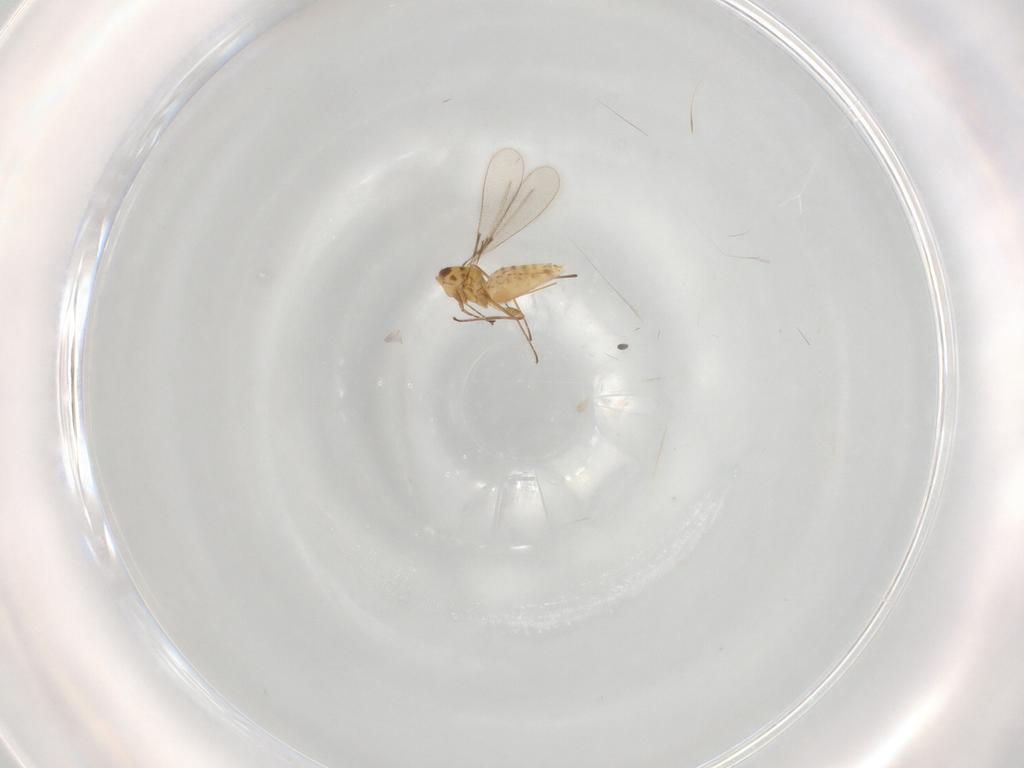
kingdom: Animalia
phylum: Arthropoda
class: Insecta
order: Hymenoptera
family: Mymaridae
